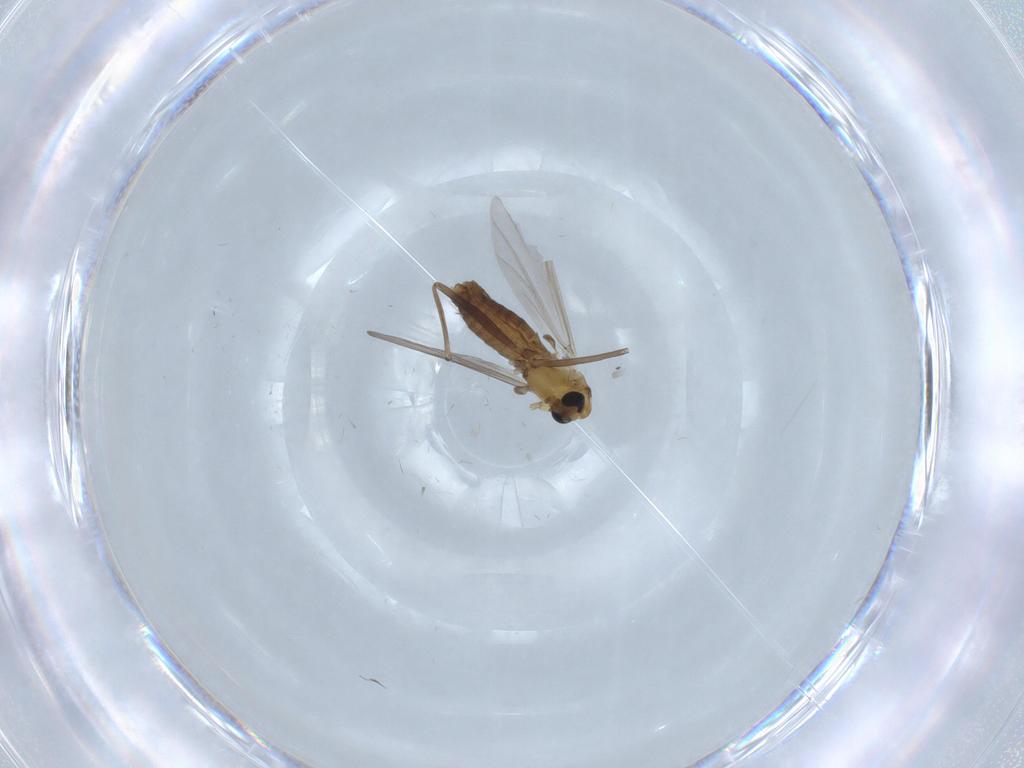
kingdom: Animalia
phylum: Arthropoda
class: Insecta
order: Diptera
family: Chironomidae
